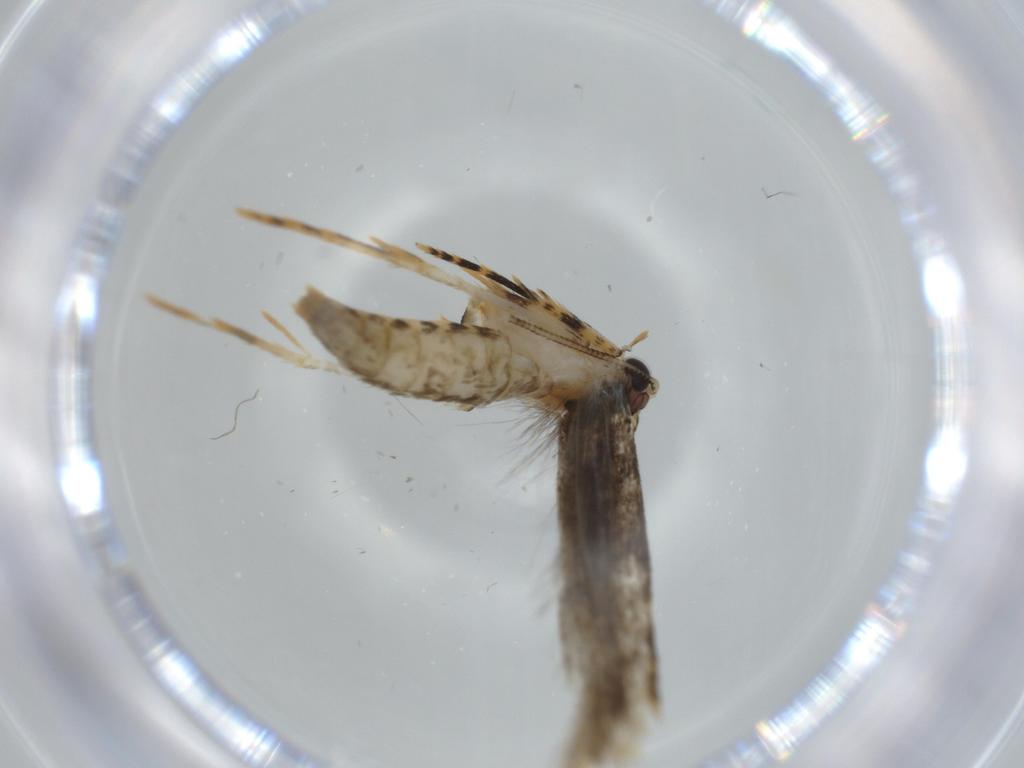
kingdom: Animalia
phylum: Arthropoda
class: Insecta
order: Lepidoptera
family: Tineidae
